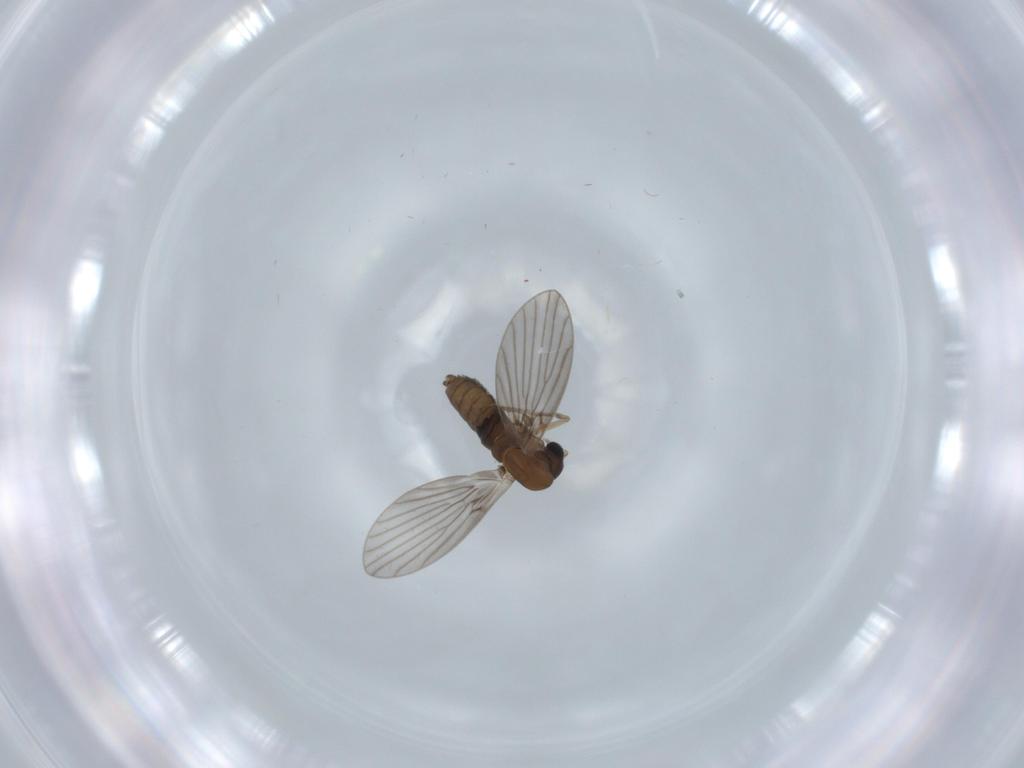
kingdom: Animalia
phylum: Arthropoda
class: Insecta
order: Diptera
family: Psychodidae
